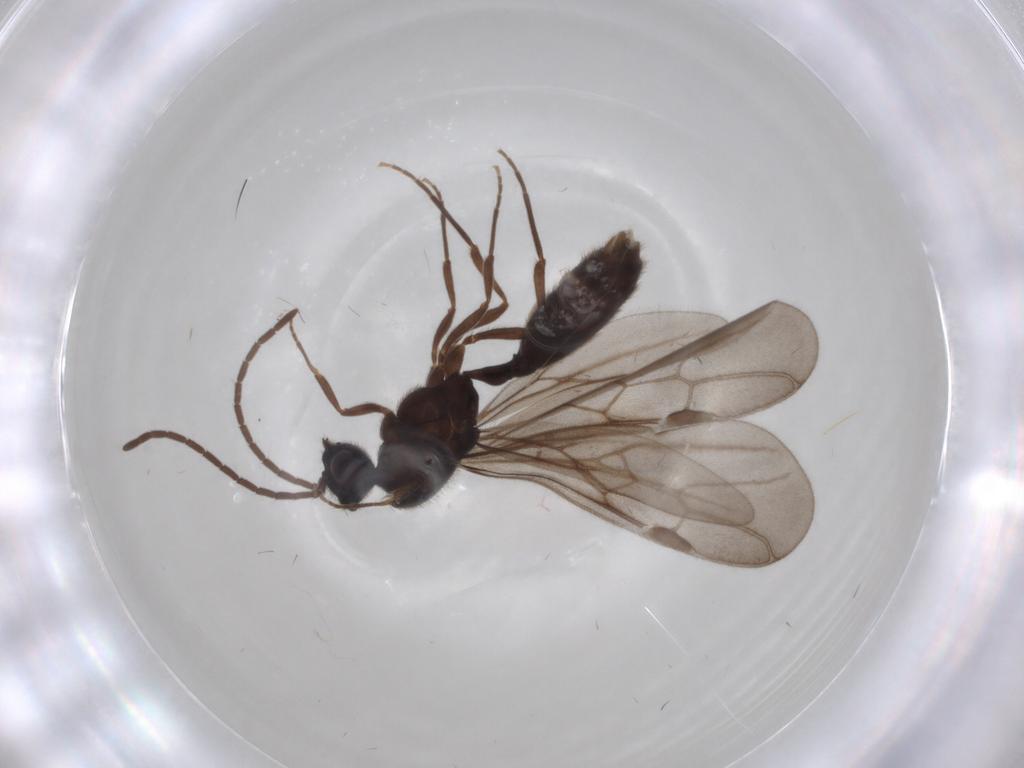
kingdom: Animalia
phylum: Arthropoda
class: Insecta
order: Hymenoptera
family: Formicidae
